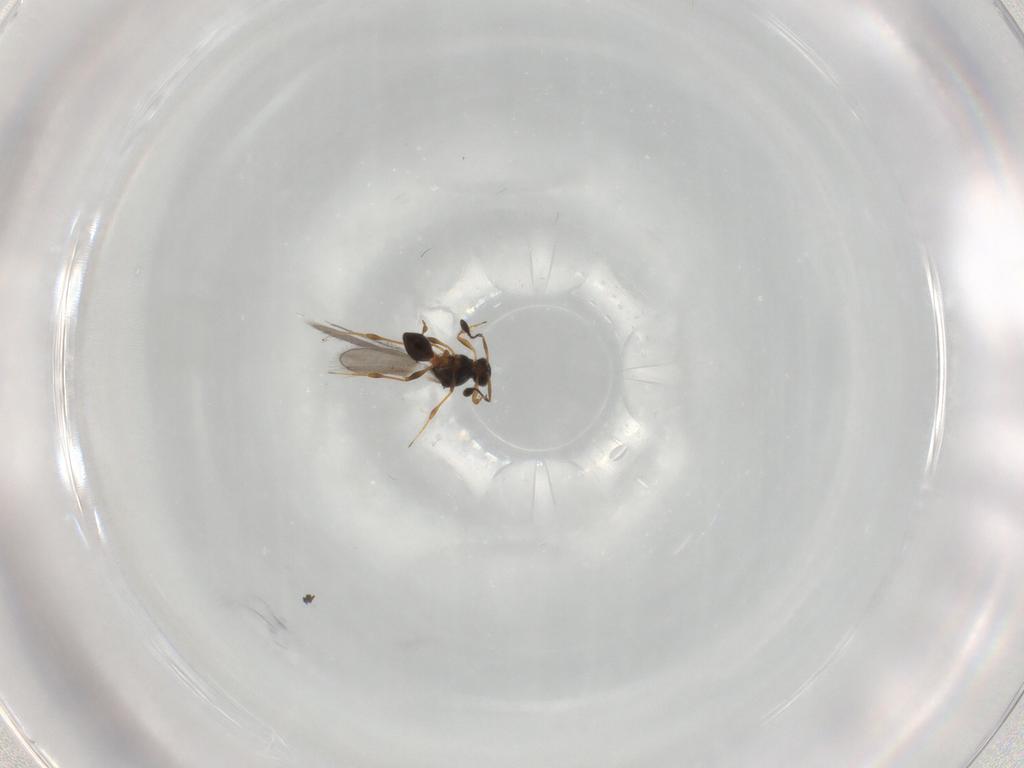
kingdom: Animalia
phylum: Arthropoda
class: Insecta
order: Hymenoptera
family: Platygastridae
